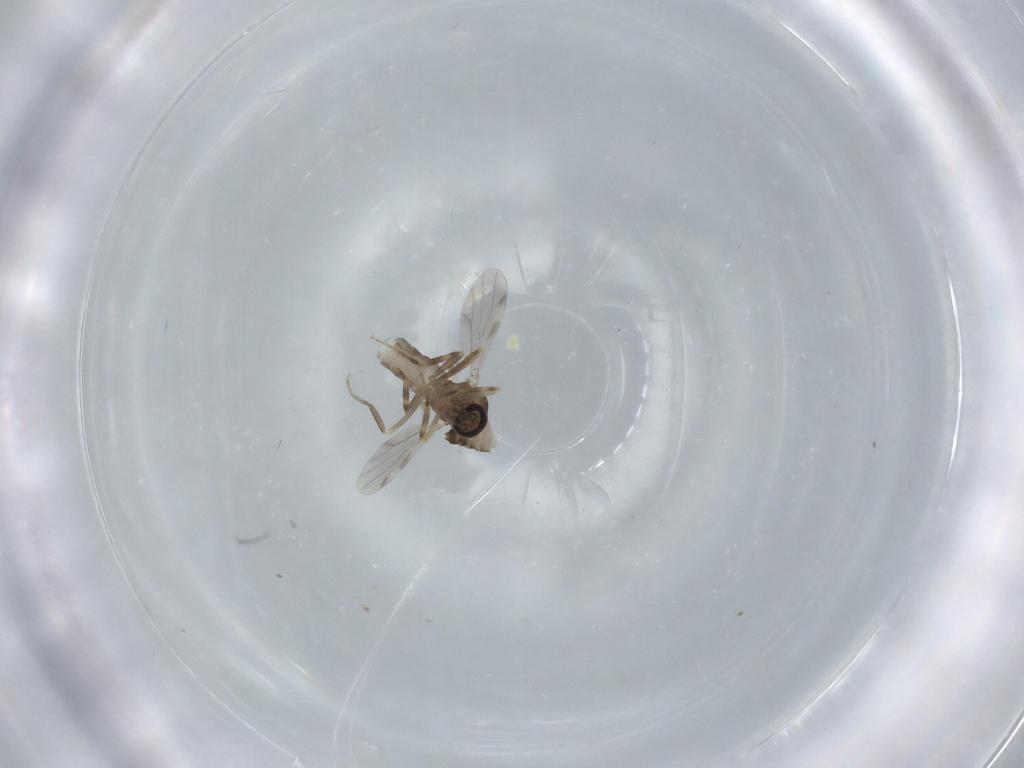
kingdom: Animalia
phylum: Arthropoda
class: Insecta
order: Diptera
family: Ceratopogonidae
